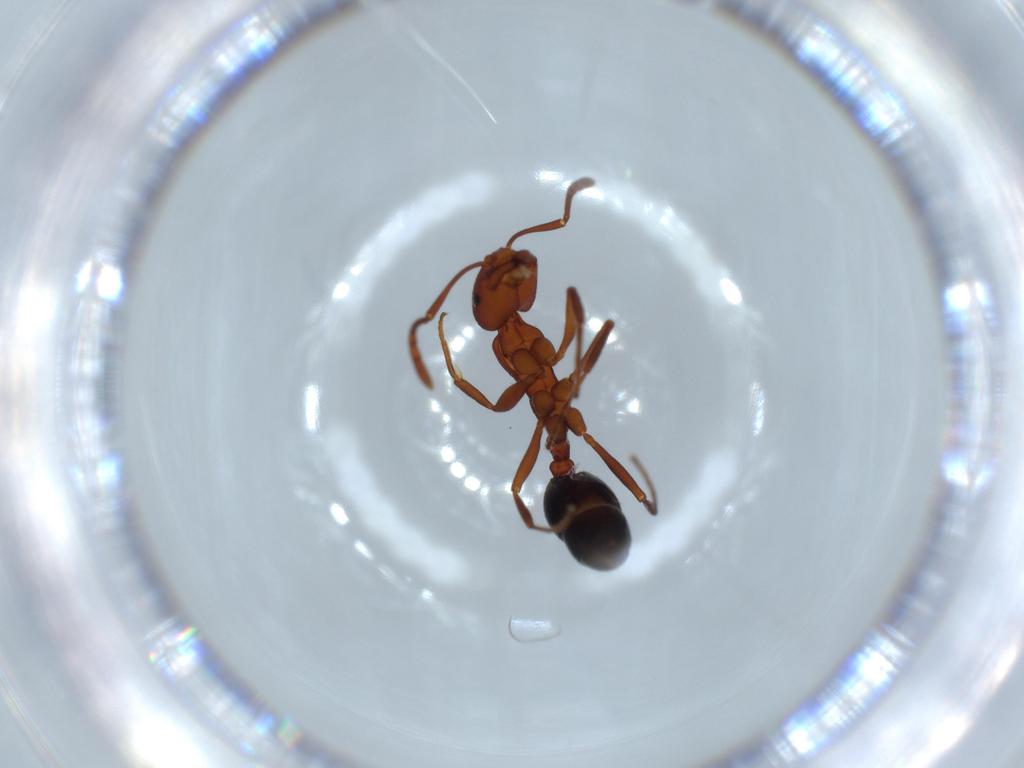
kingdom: Animalia
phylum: Arthropoda
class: Insecta
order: Hymenoptera
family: Formicidae
